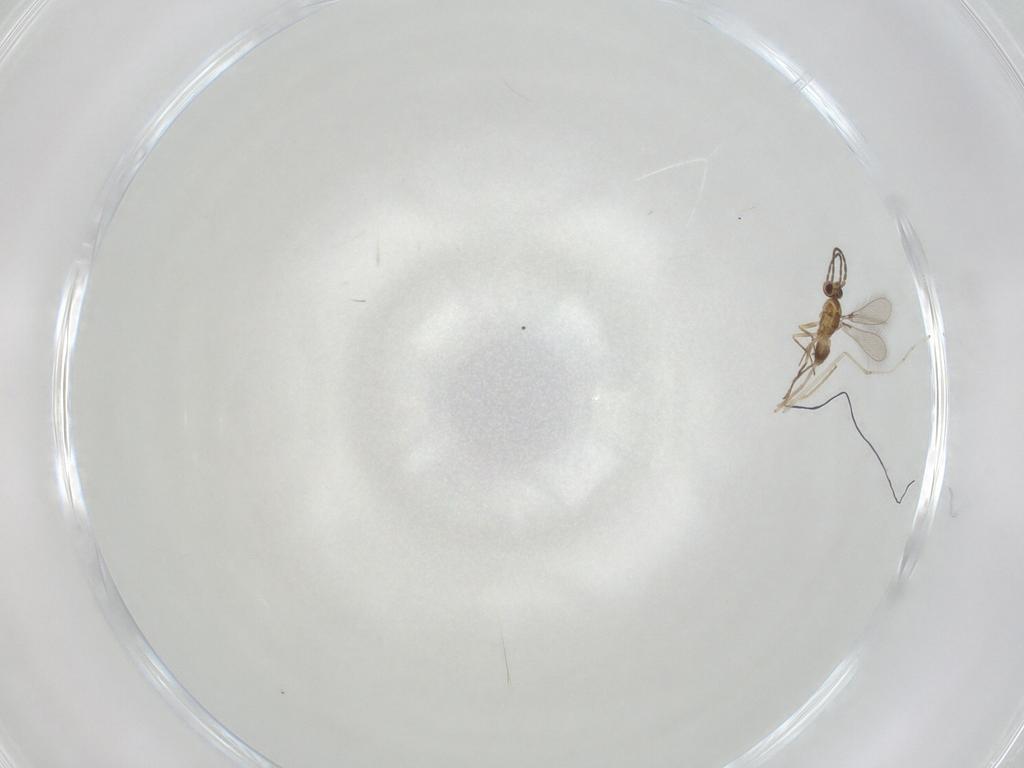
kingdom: Animalia
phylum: Arthropoda
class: Insecta
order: Hymenoptera
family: Mymaridae
